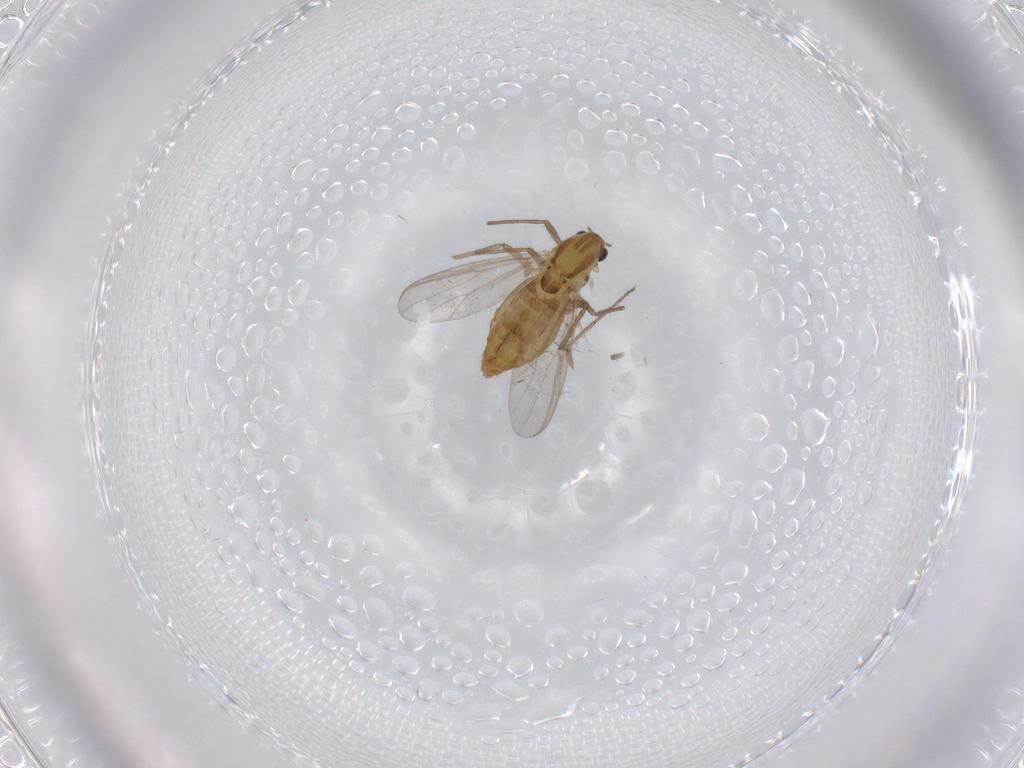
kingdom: Animalia
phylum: Arthropoda
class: Insecta
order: Diptera
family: Chironomidae
